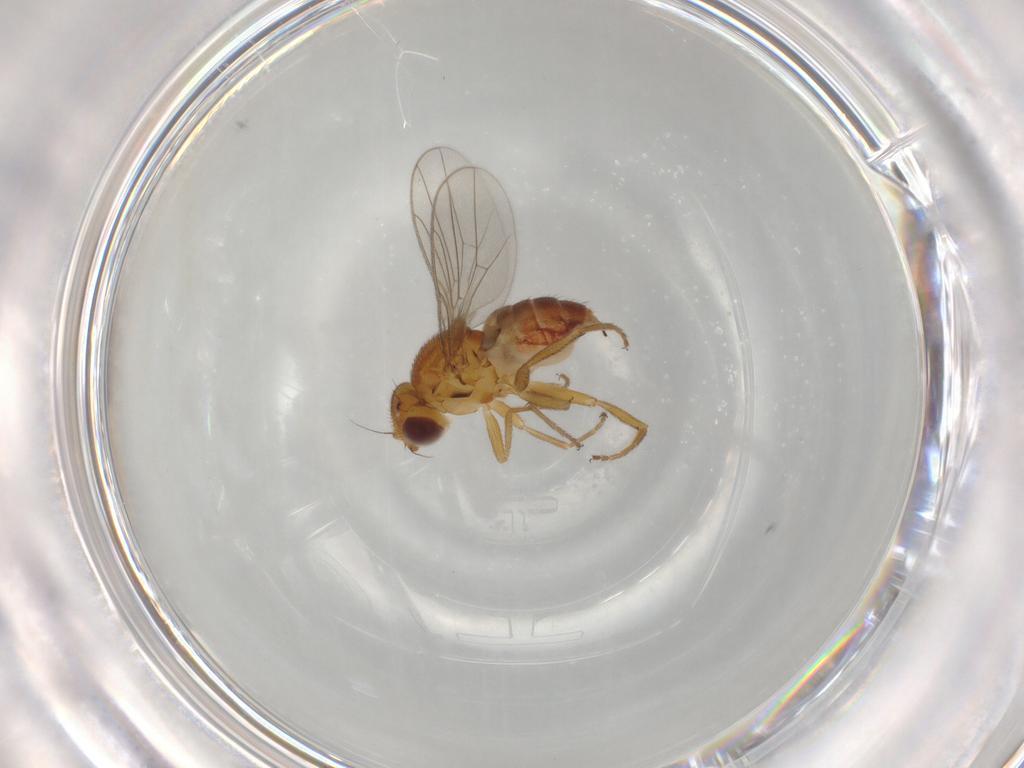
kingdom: Animalia
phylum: Arthropoda
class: Insecta
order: Diptera
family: Chloropidae
